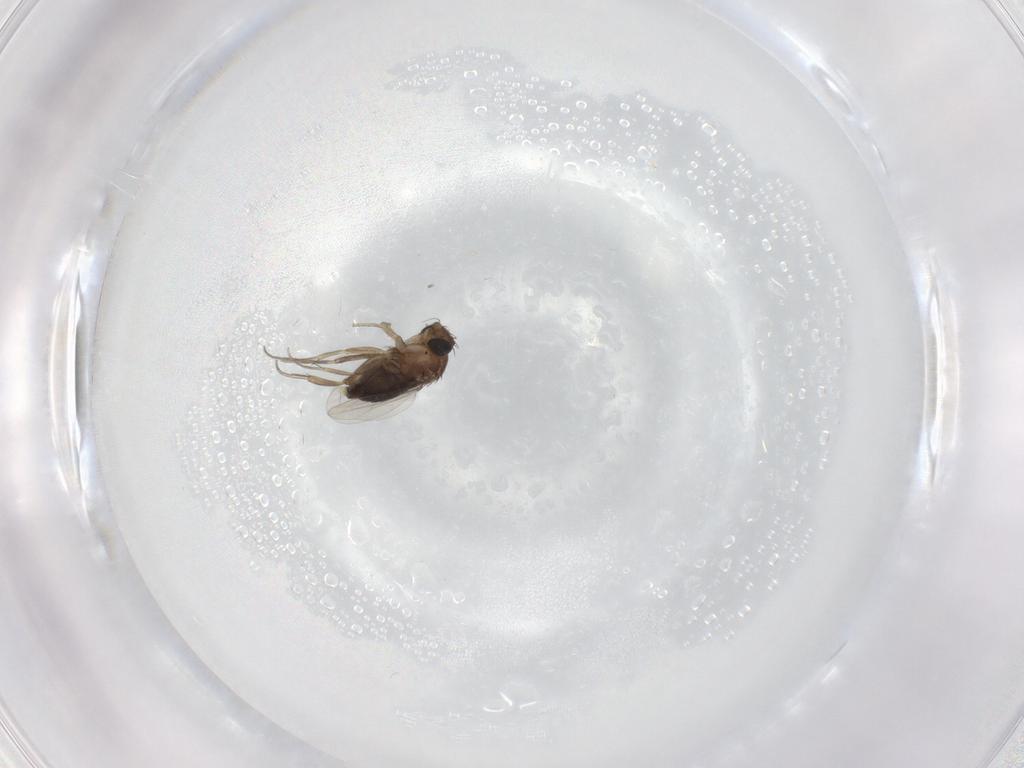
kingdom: Animalia
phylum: Arthropoda
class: Insecta
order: Diptera
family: Phoridae
